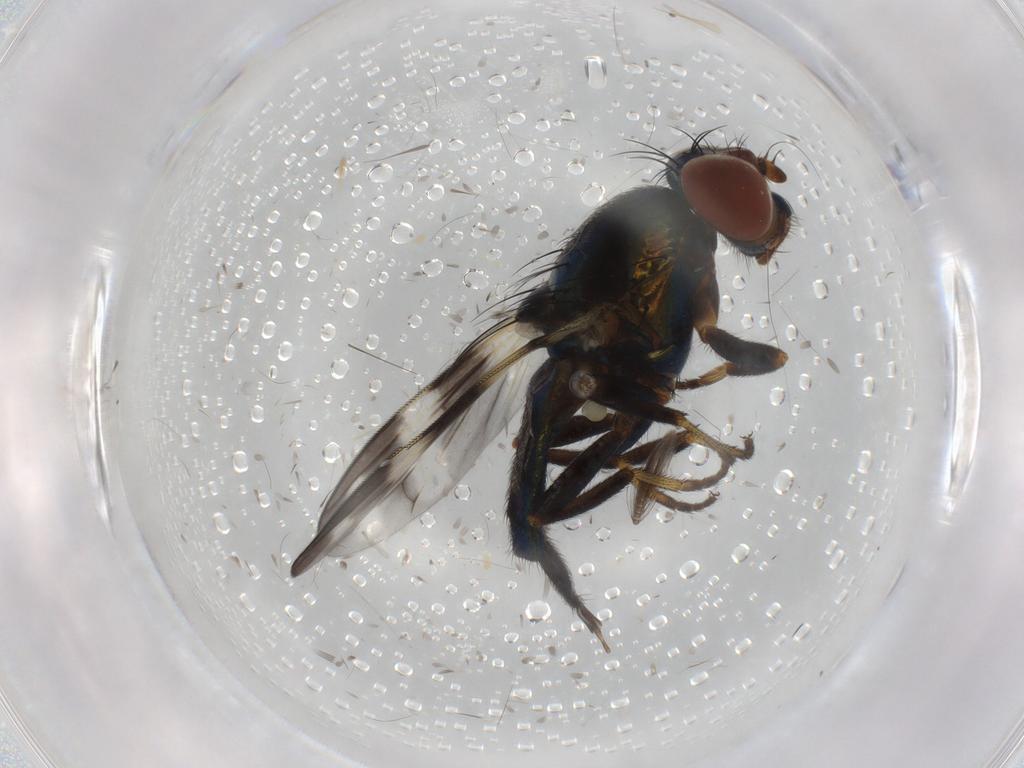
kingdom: Animalia
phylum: Arthropoda
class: Insecta
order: Diptera
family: Ulidiidae
